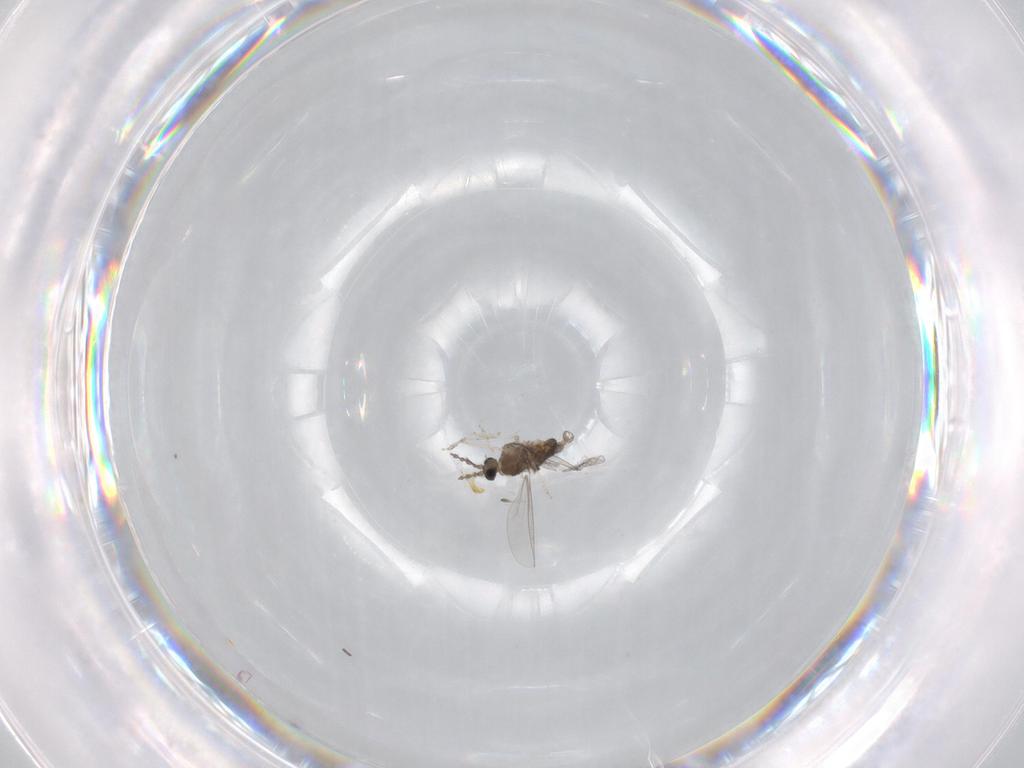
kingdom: Animalia
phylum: Arthropoda
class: Insecta
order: Diptera
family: Cecidomyiidae
